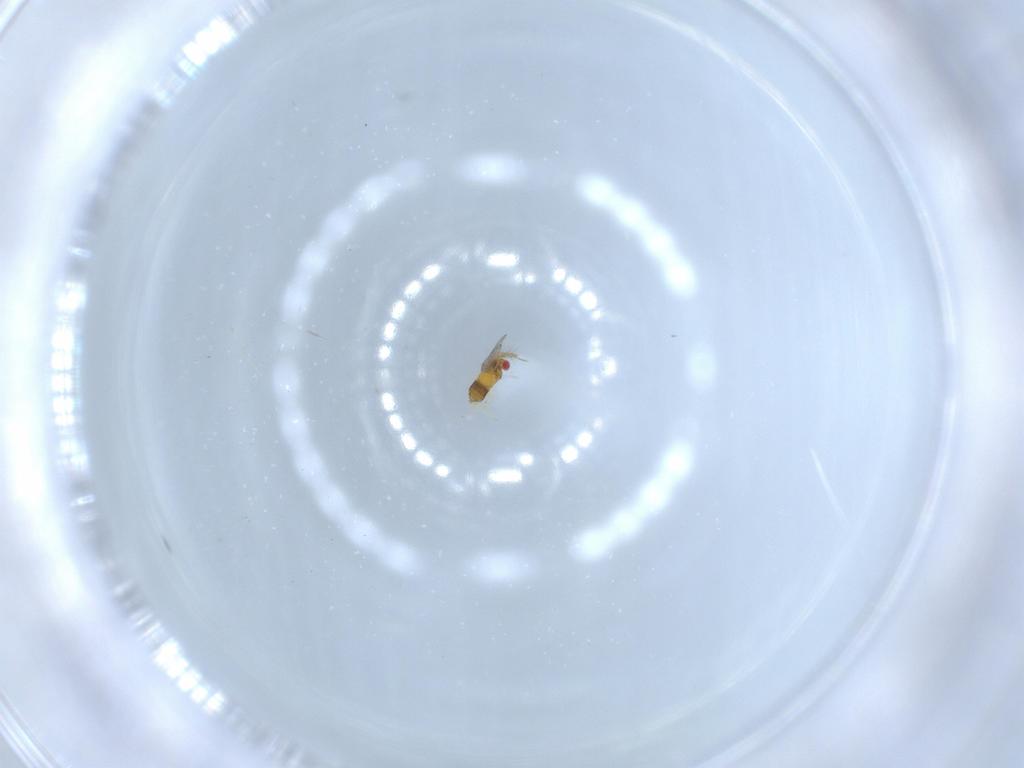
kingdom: Animalia
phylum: Arthropoda
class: Insecta
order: Hymenoptera
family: Trichogrammatidae
